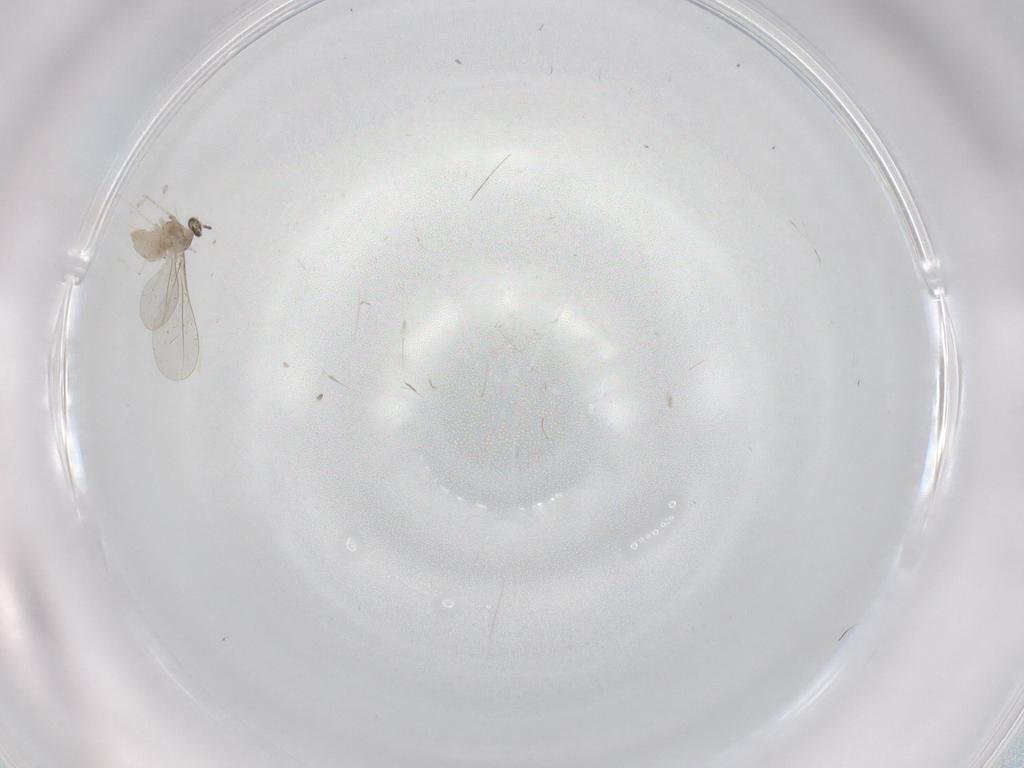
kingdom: Animalia
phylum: Arthropoda
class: Insecta
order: Diptera
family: Cecidomyiidae
